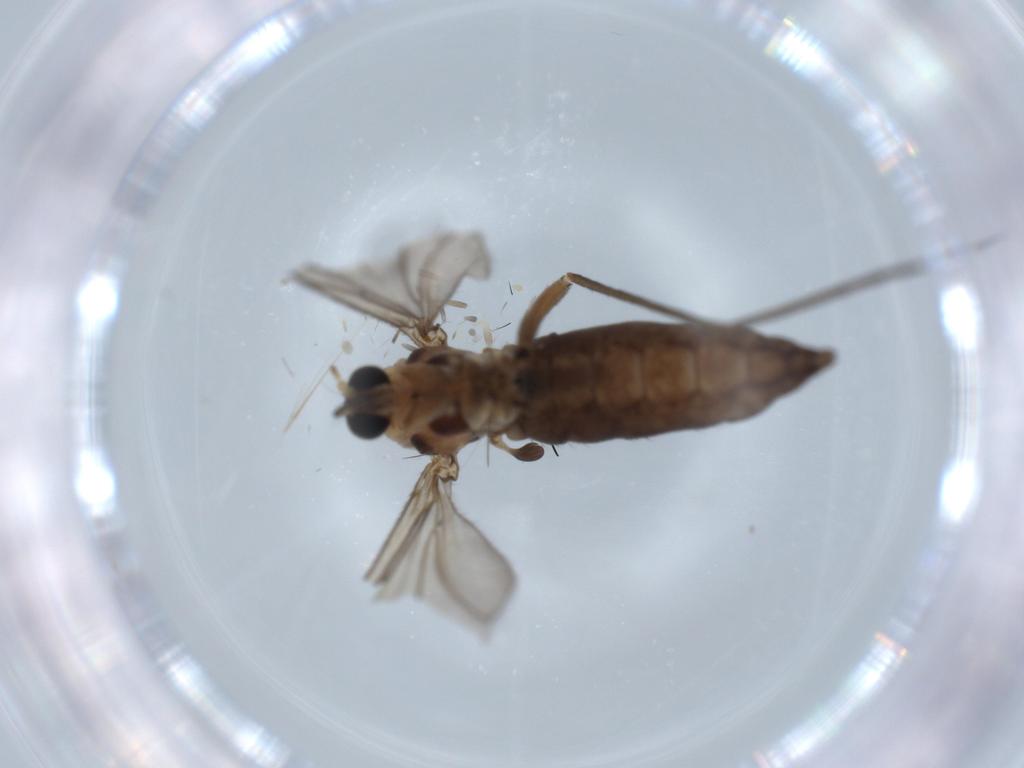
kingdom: Animalia
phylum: Arthropoda
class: Insecta
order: Diptera
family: Sciaridae
